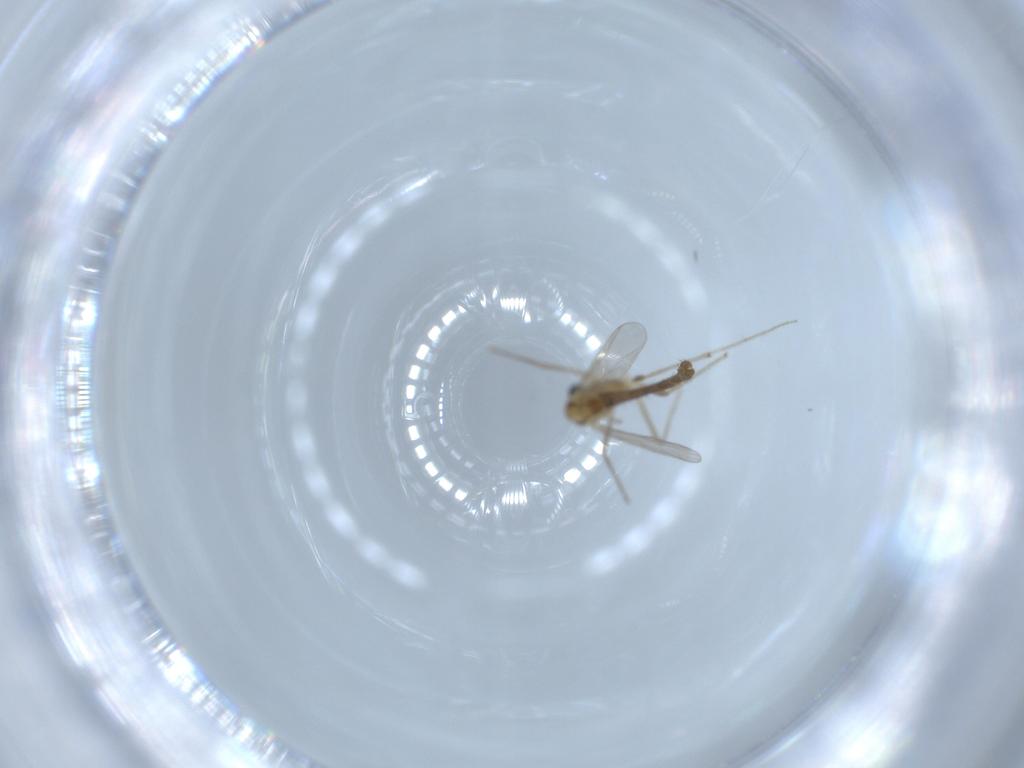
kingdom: Animalia
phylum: Arthropoda
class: Insecta
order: Diptera
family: Chironomidae
